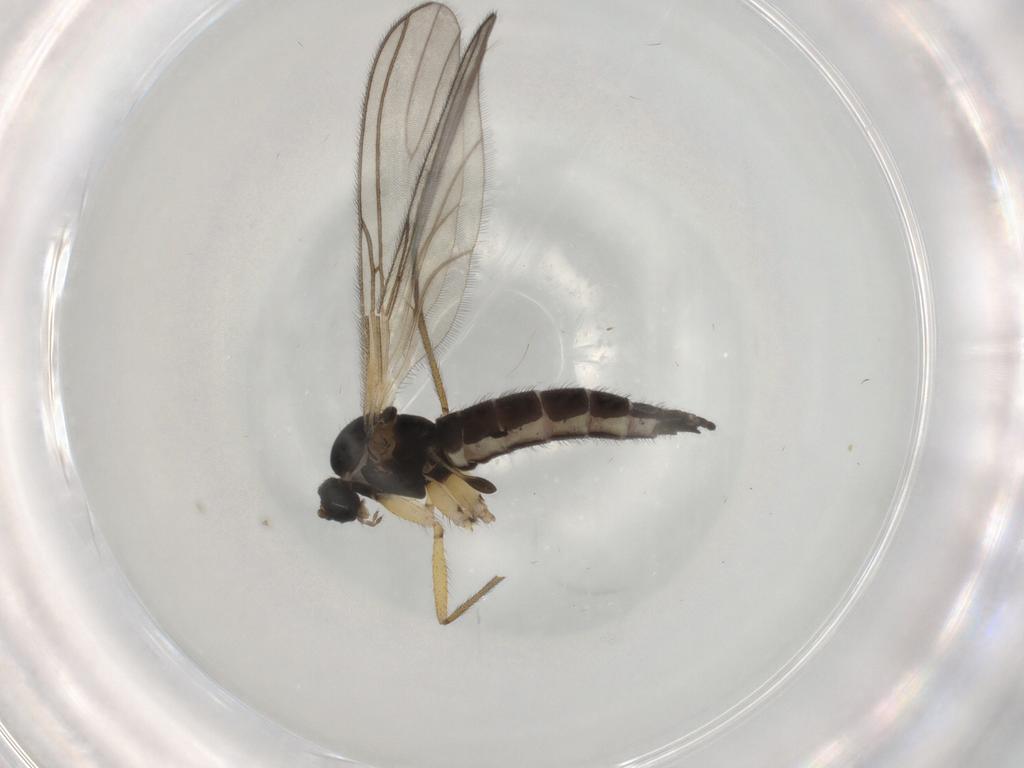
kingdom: Animalia
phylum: Arthropoda
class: Insecta
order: Diptera
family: Sciaridae
